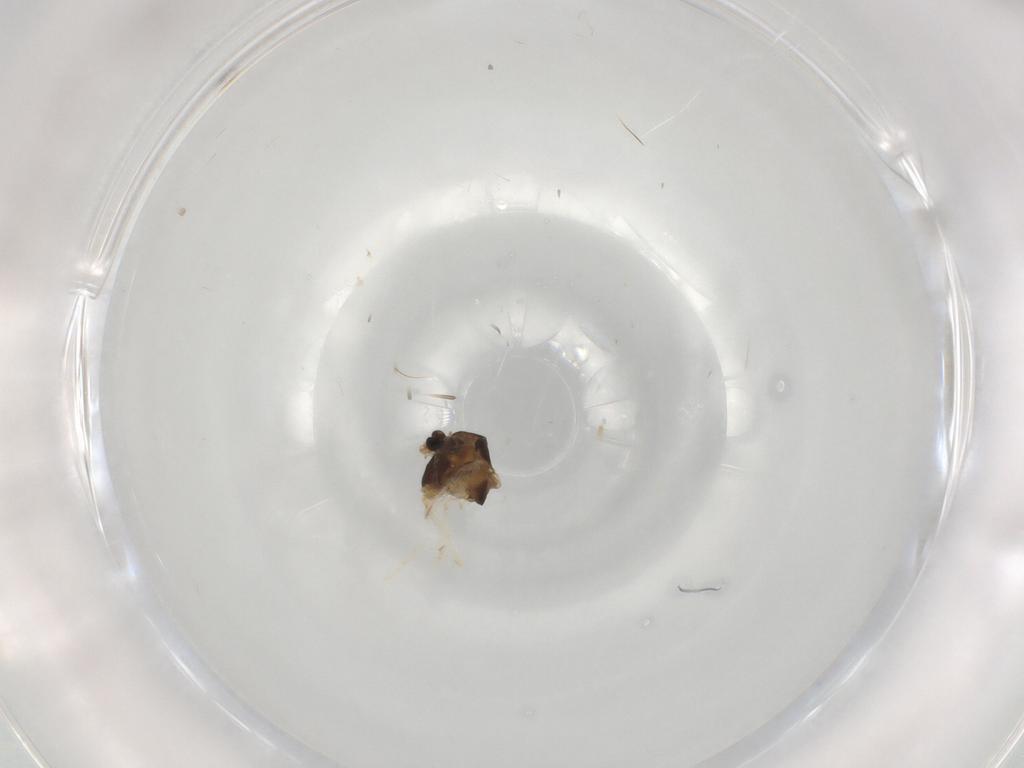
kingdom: Animalia
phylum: Arthropoda
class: Insecta
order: Diptera
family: Chironomidae
